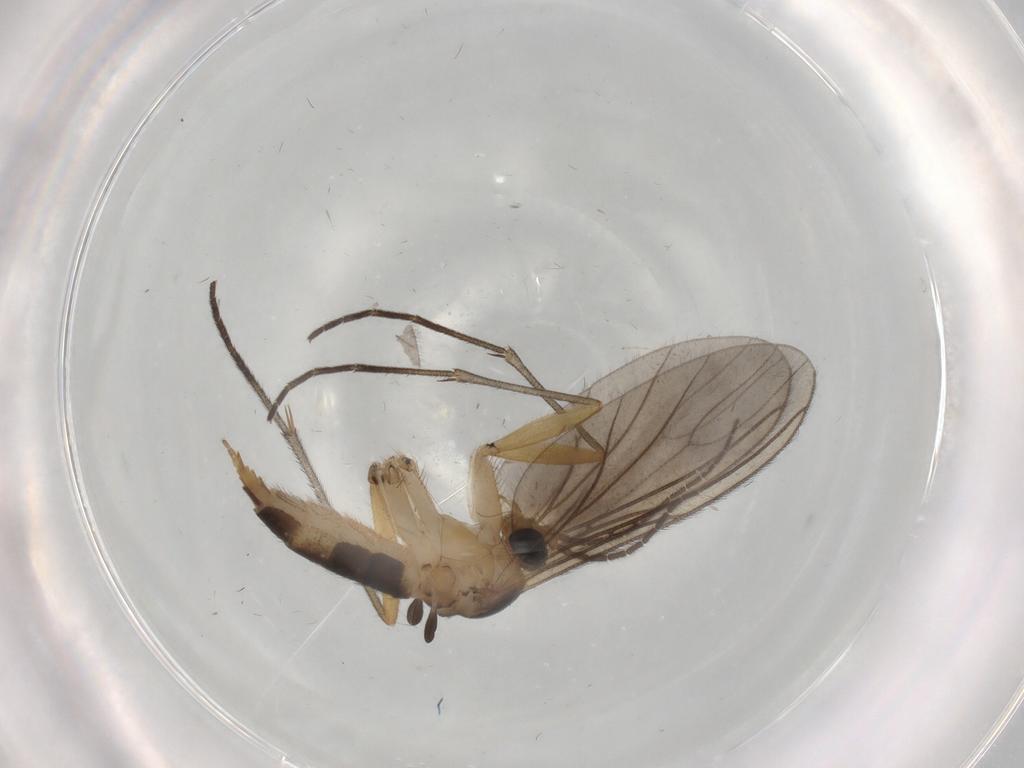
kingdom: Animalia
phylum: Arthropoda
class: Insecta
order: Diptera
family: Sciaridae
